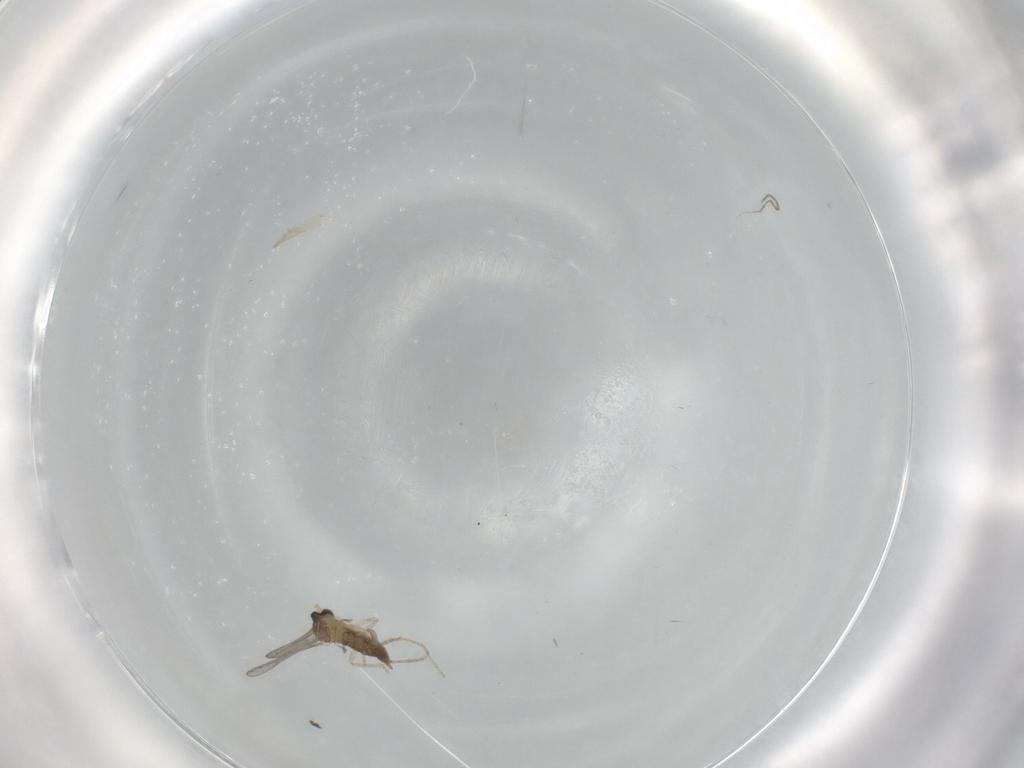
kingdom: Animalia
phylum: Arthropoda
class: Insecta
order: Diptera
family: Cecidomyiidae
